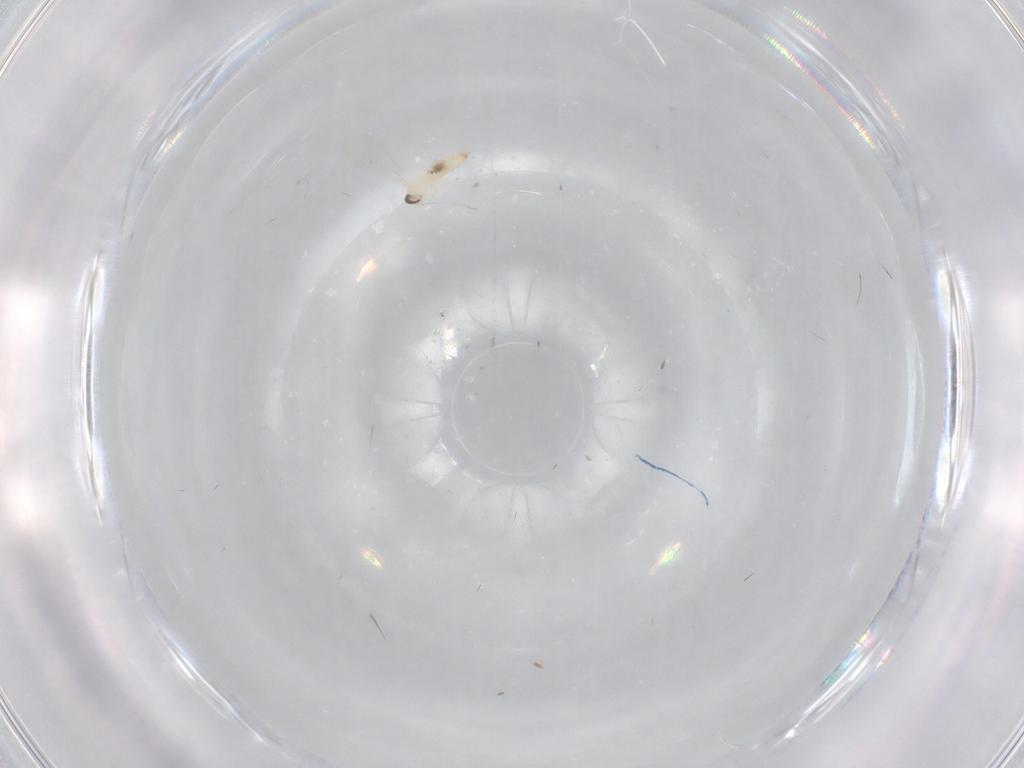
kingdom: Animalia
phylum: Arthropoda
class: Insecta
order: Diptera
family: Cecidomyiidae
